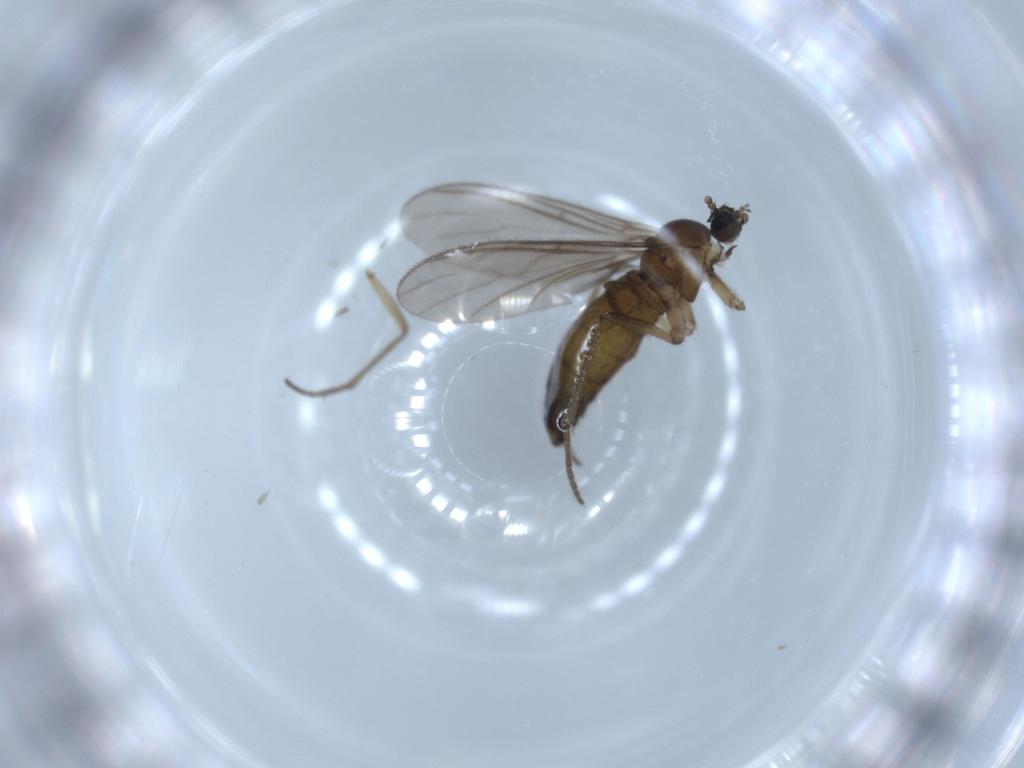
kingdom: Animalia
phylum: Arthropoda
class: Insecta
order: Diptera
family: Sciaridae
